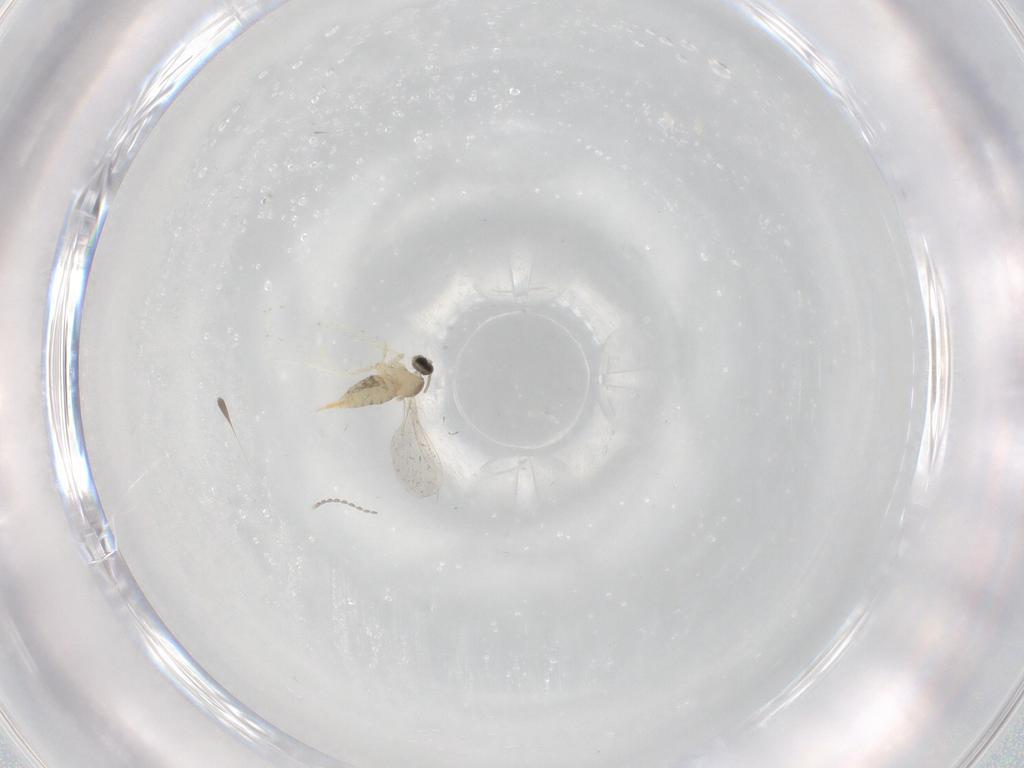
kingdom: Animalia
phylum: Arthropoda
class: Insecta
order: Diptera
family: Cecidomyiidae
